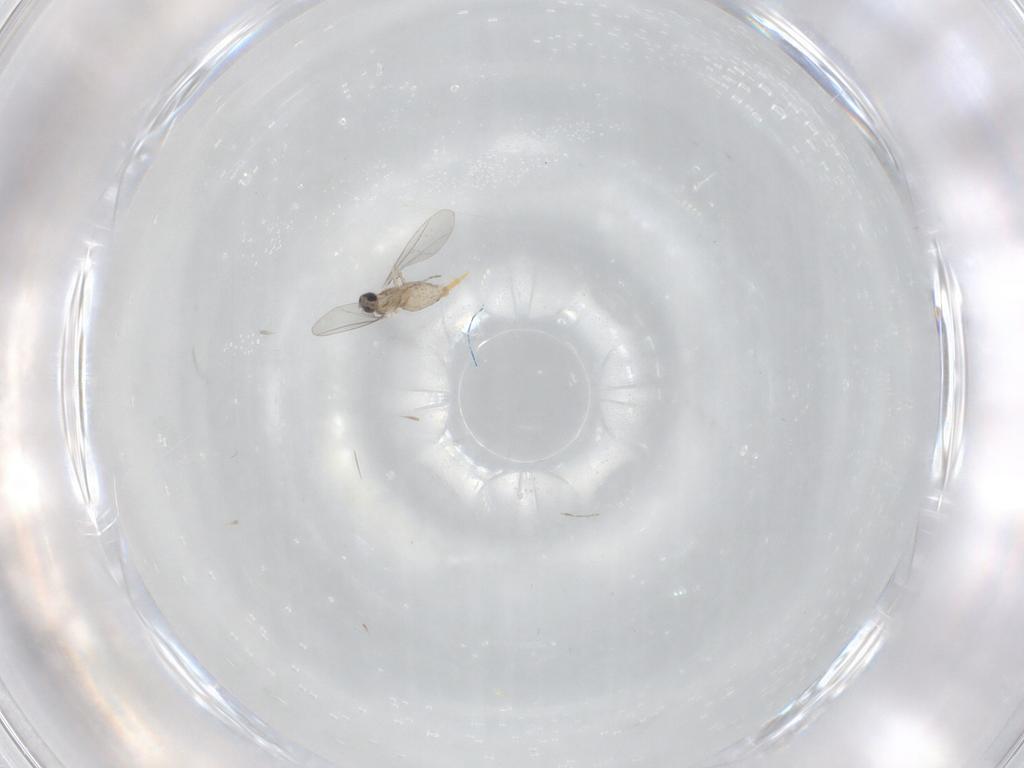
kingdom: Animalia
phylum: Arthropoda
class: Insecta
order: Diptera
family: Cecidomyiidae
